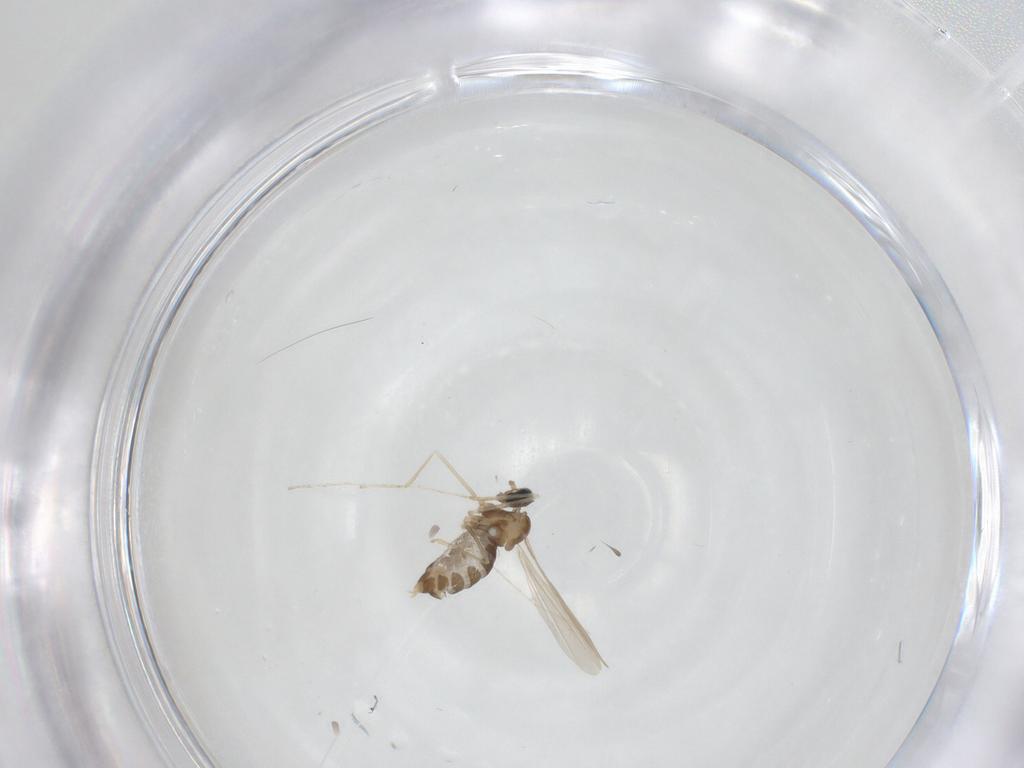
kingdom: Animalia
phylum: Arthropoda
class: Insecta
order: Diptera
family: Cecidomyiidae
